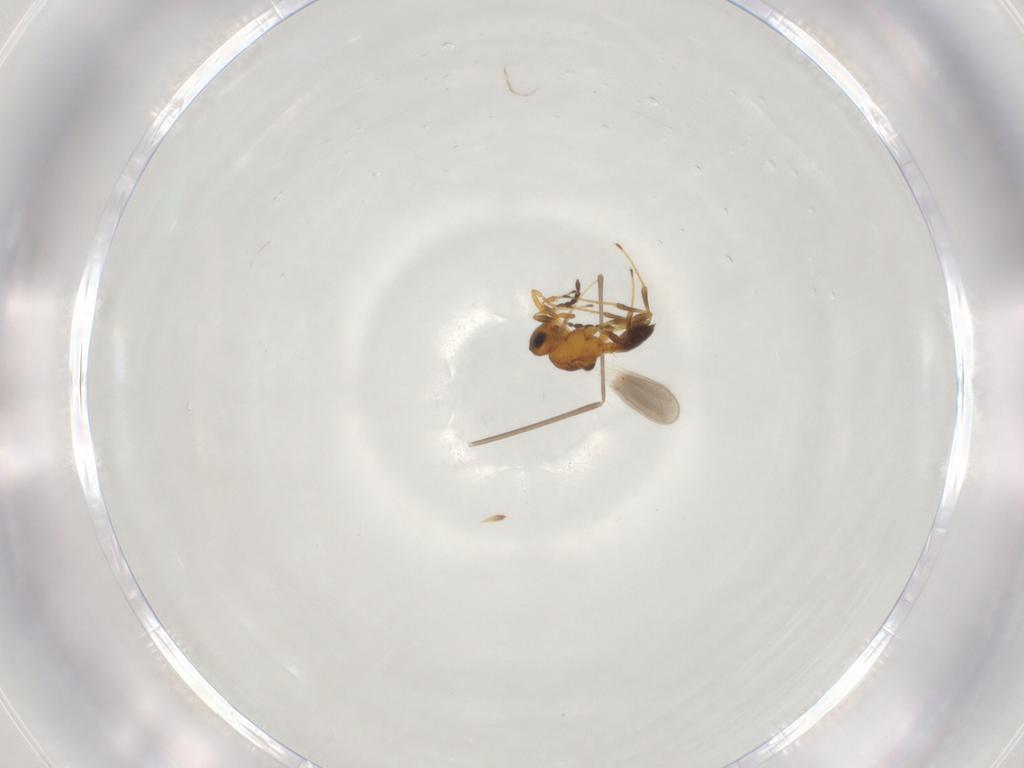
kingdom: Animalia
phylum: Arthropoda
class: Insecta
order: Hymenoptera
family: Platygastridae
